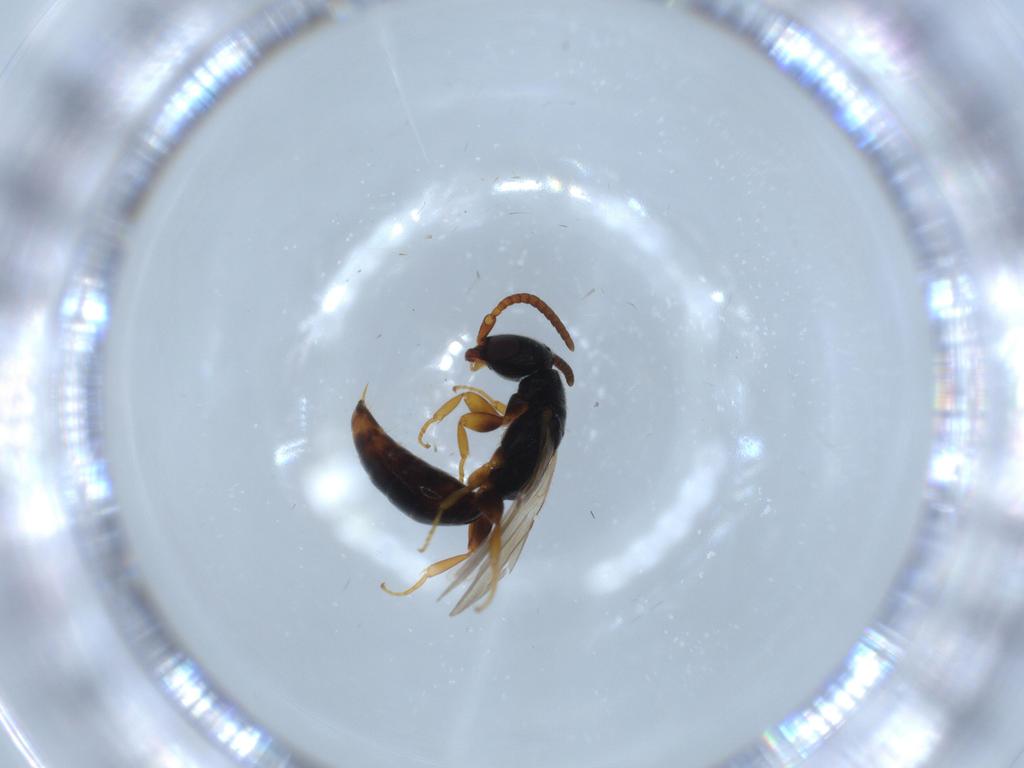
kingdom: Animalia
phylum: Arthropoda
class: Insecta
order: Hymenoptera
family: Bethylidae
